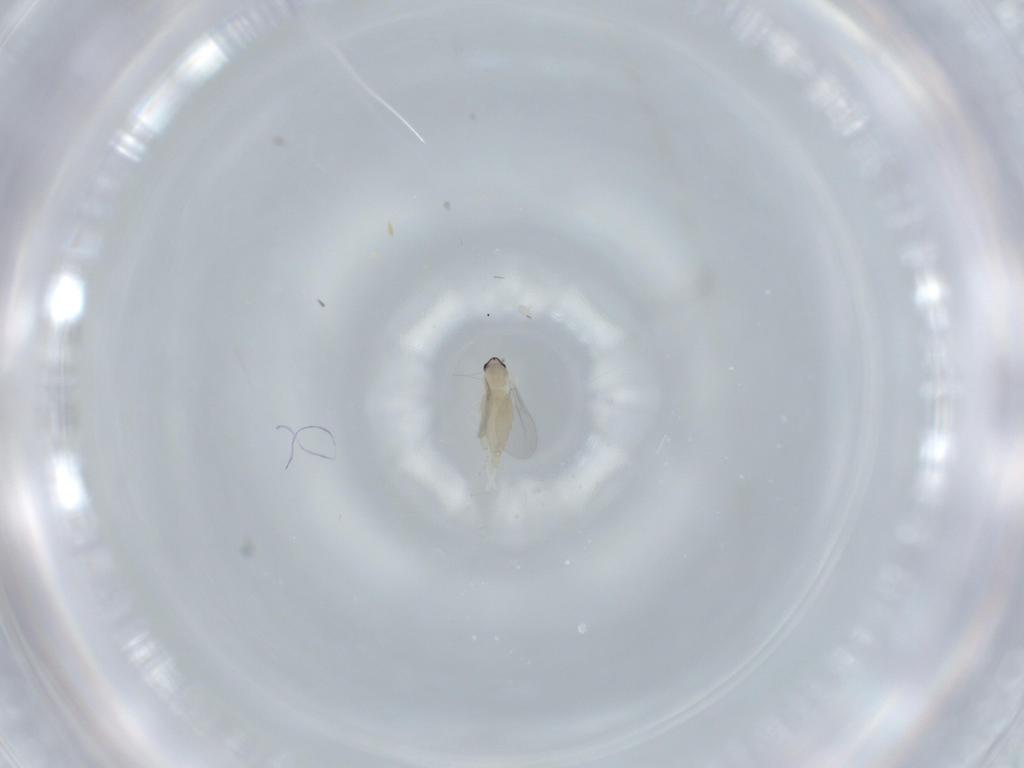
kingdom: Animalia
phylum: Arthropoda
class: Insecta
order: Diptera
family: Cecidomyiidae
